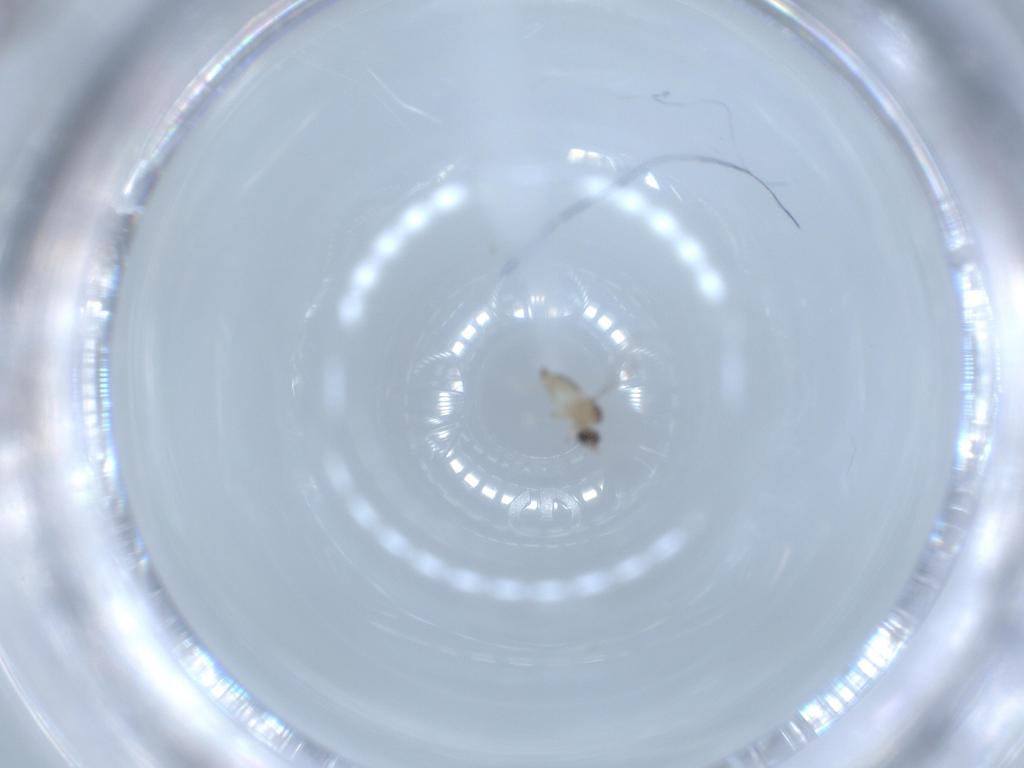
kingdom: Animalia
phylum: Arthropoda
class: Insecta
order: Diptera
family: Cecidomyiidae
